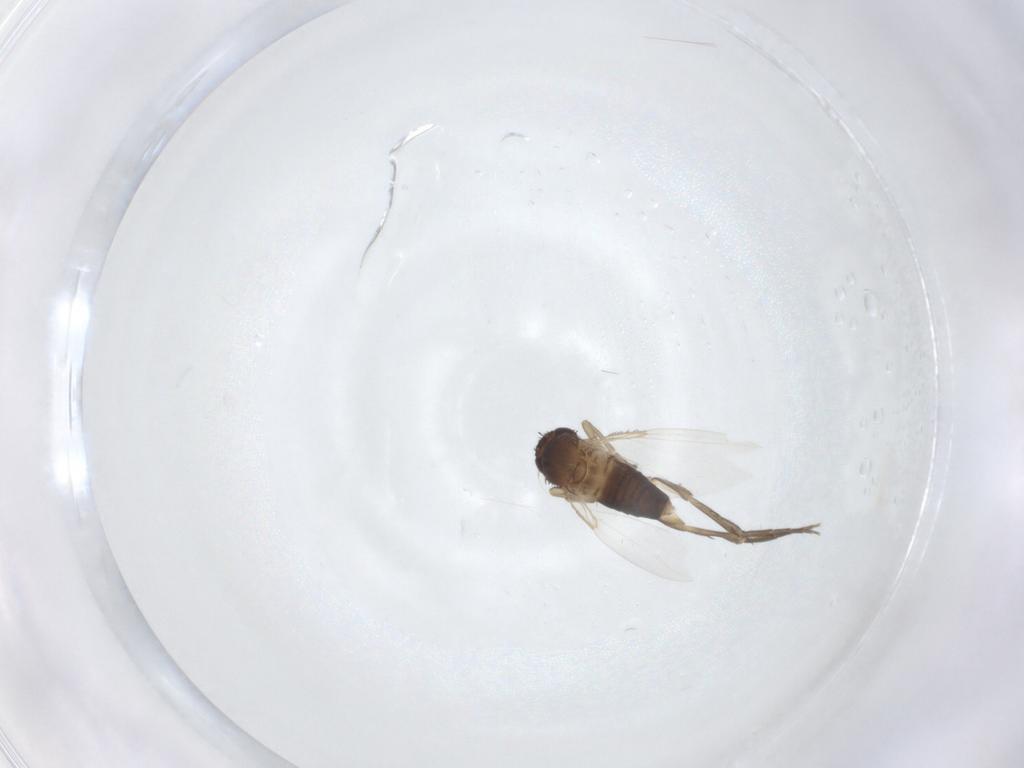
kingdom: Animalia
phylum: Arthropoda
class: Insecta
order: Diptera
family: Phoridae
